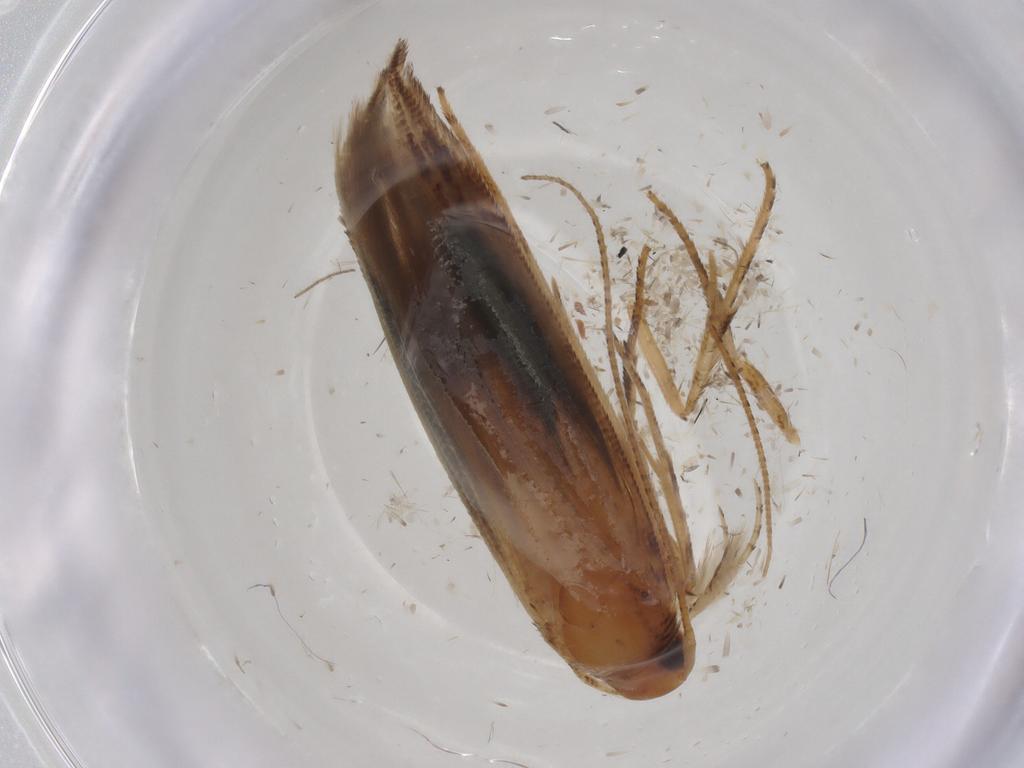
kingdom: Animalia
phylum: Arthropoda
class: Insecta
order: Lepidoptera
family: Momphidae
